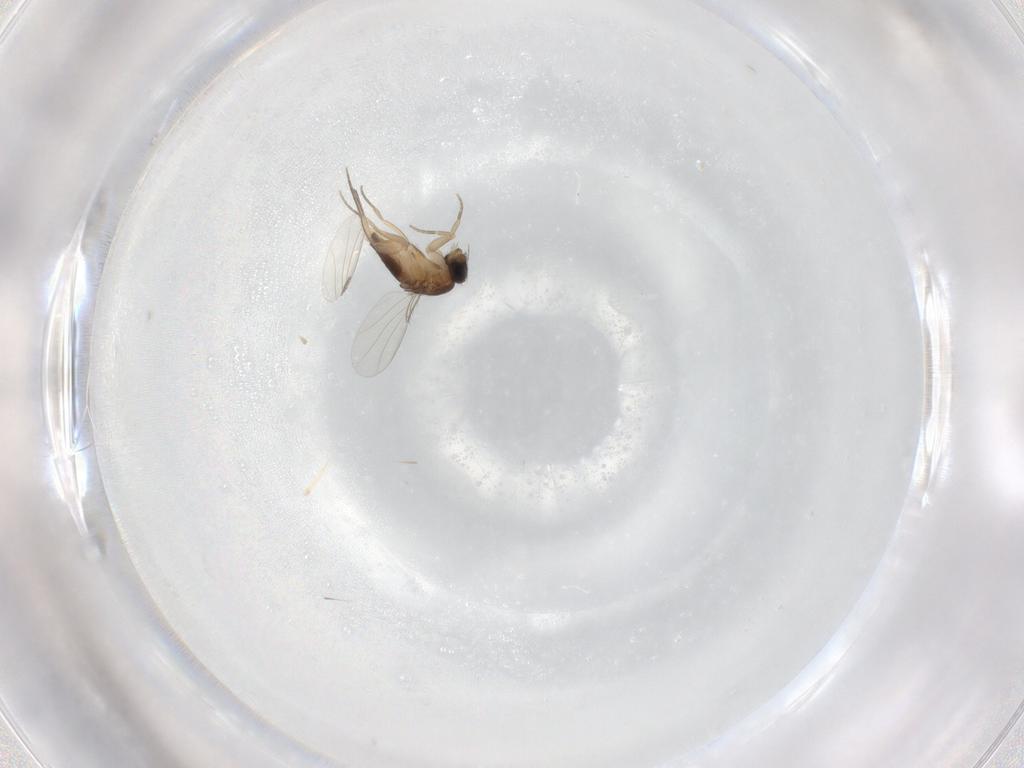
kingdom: Animalia
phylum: Arthropoda
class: Insecta
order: Diptera
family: Phoridae
